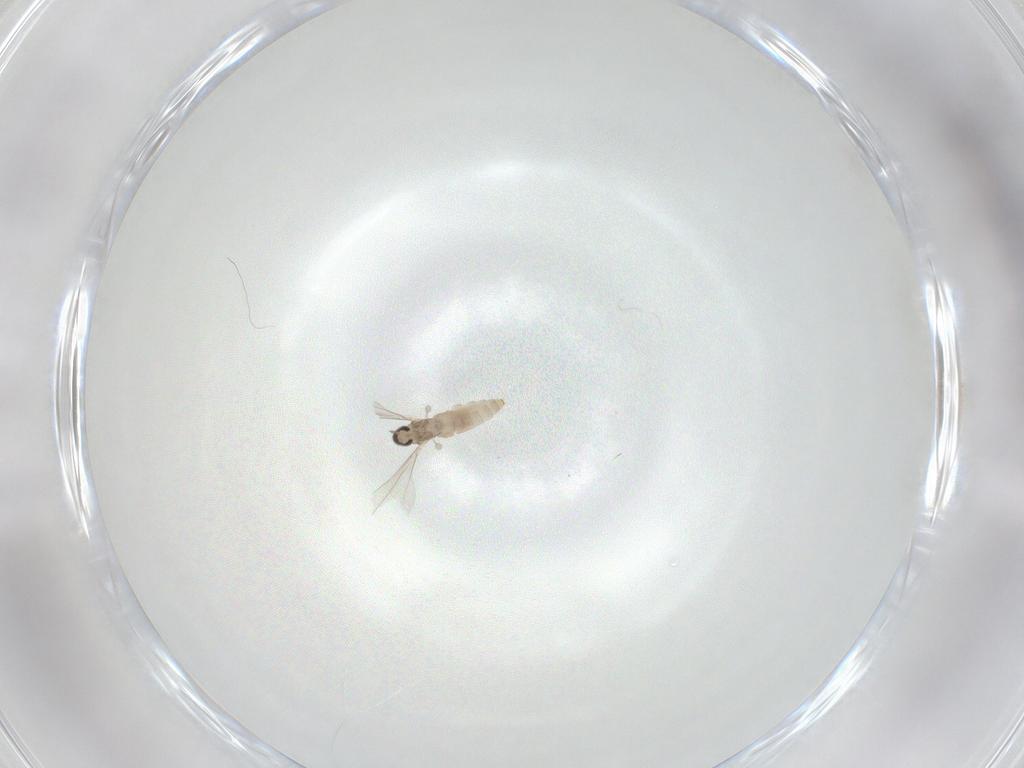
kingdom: Animalia
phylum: Arthropoda
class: Insecta
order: Diptera
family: Cecidomyiidae
